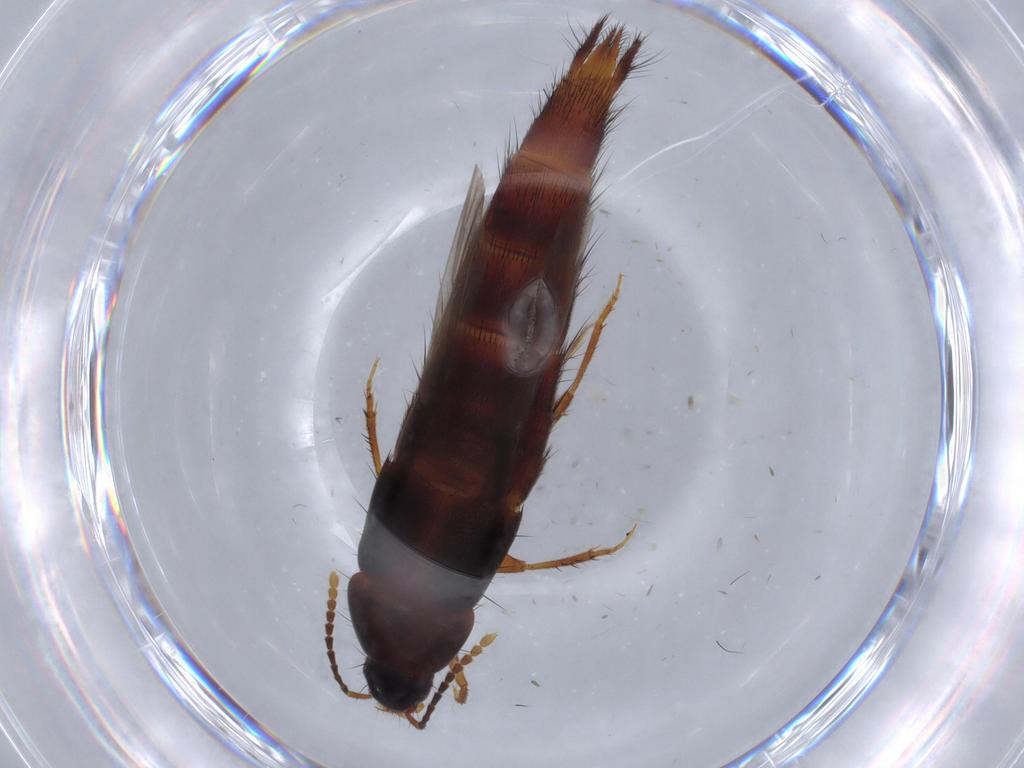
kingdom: Animalia
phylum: Arthropoda
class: Insecta
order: Coleoptera
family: Staphylinidae
